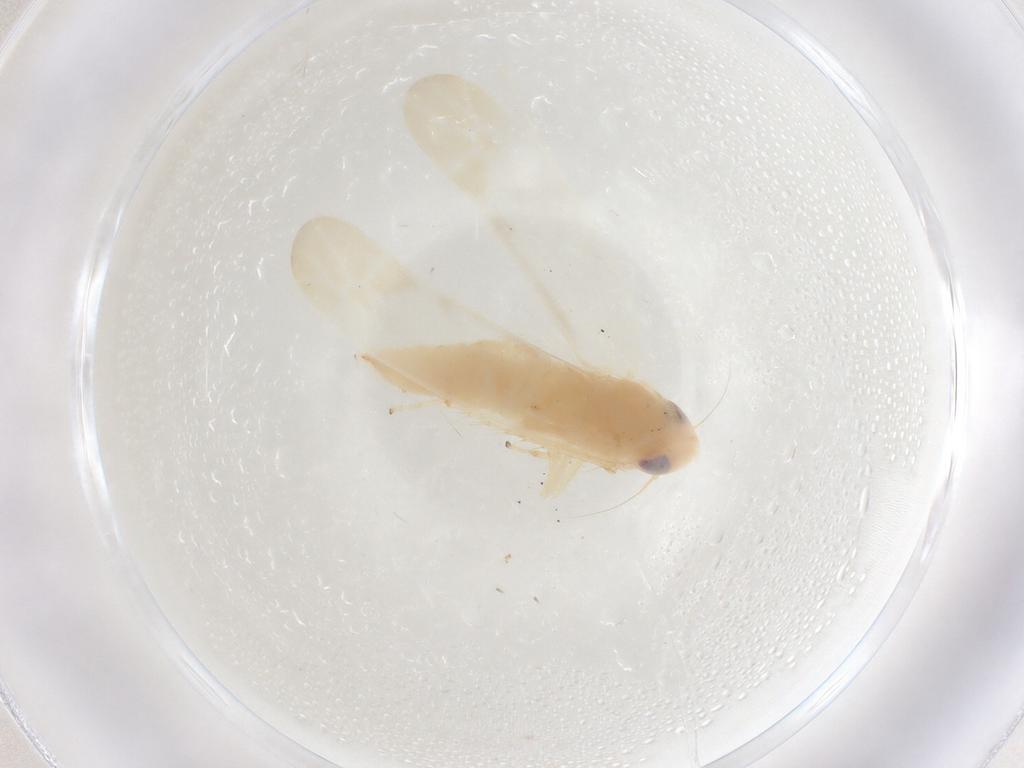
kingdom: Animalia
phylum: Arthropoda
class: Insecta
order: Hemiptera
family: Cicadellidae
